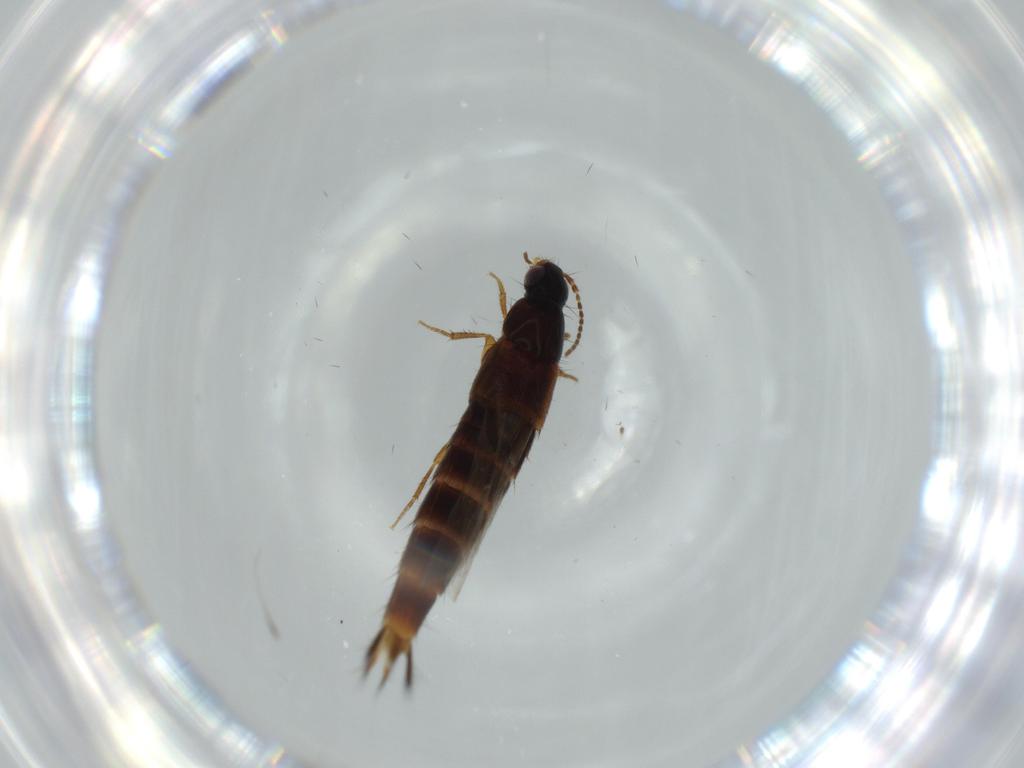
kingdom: Animalia
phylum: Arthropoda
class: Insecta
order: Coleoptera
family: Staphylinidae
